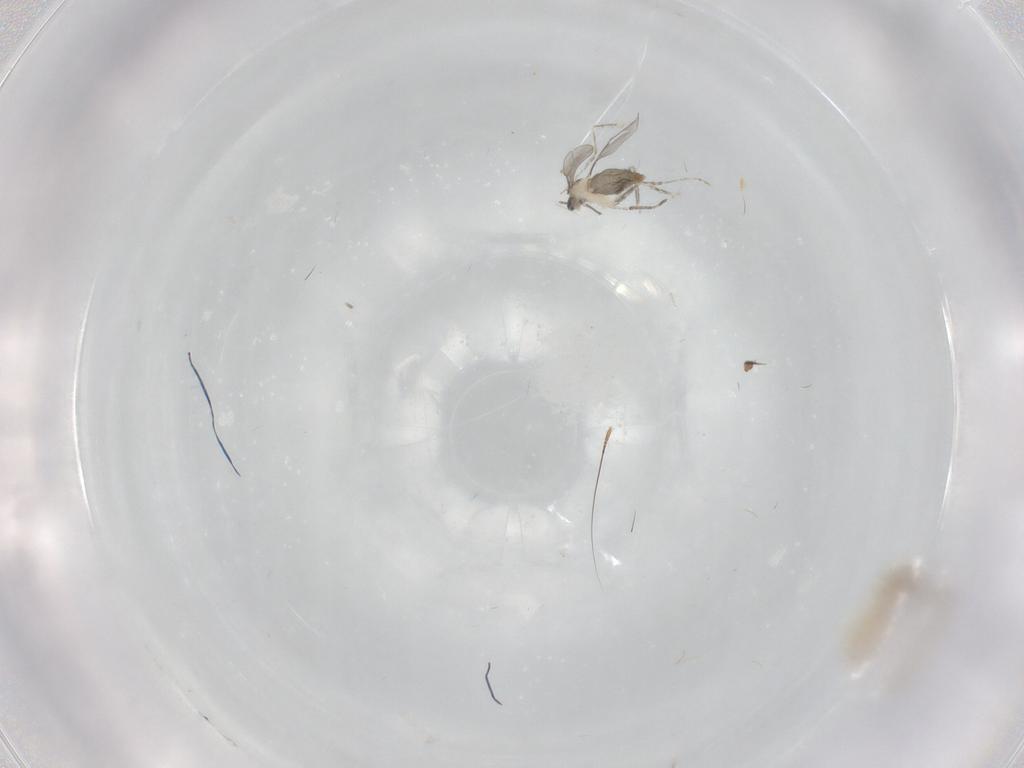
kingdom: Animalia
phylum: Arthropoda
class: Insecta
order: Diptera
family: Cecidomyiidae
